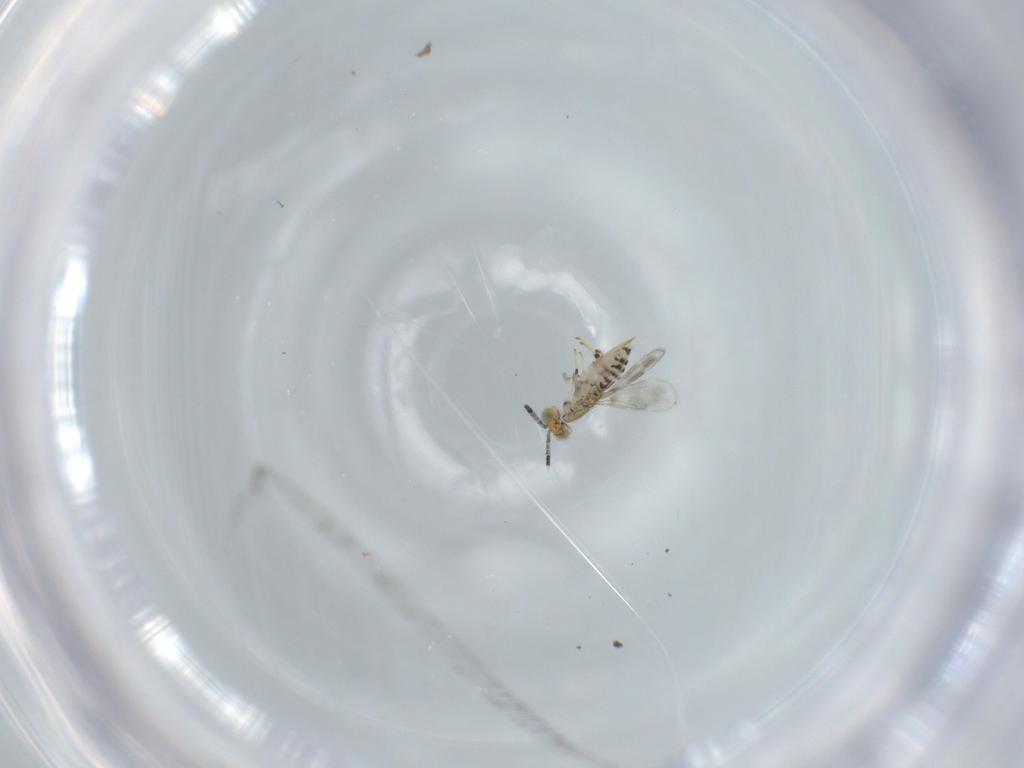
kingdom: Animalia
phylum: Arthropoda
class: Insecta
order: Hymenoptera
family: Aphelinidae
